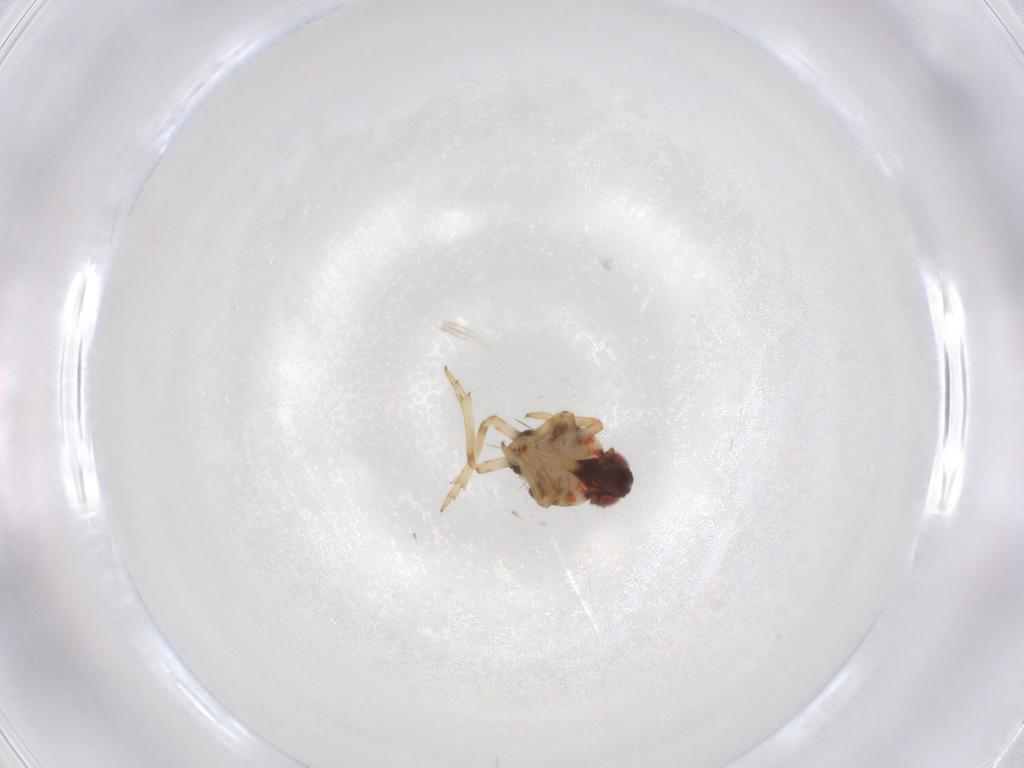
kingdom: Animalia
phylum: Arthropoda
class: Insecta
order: Hemiptera
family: Issidae
